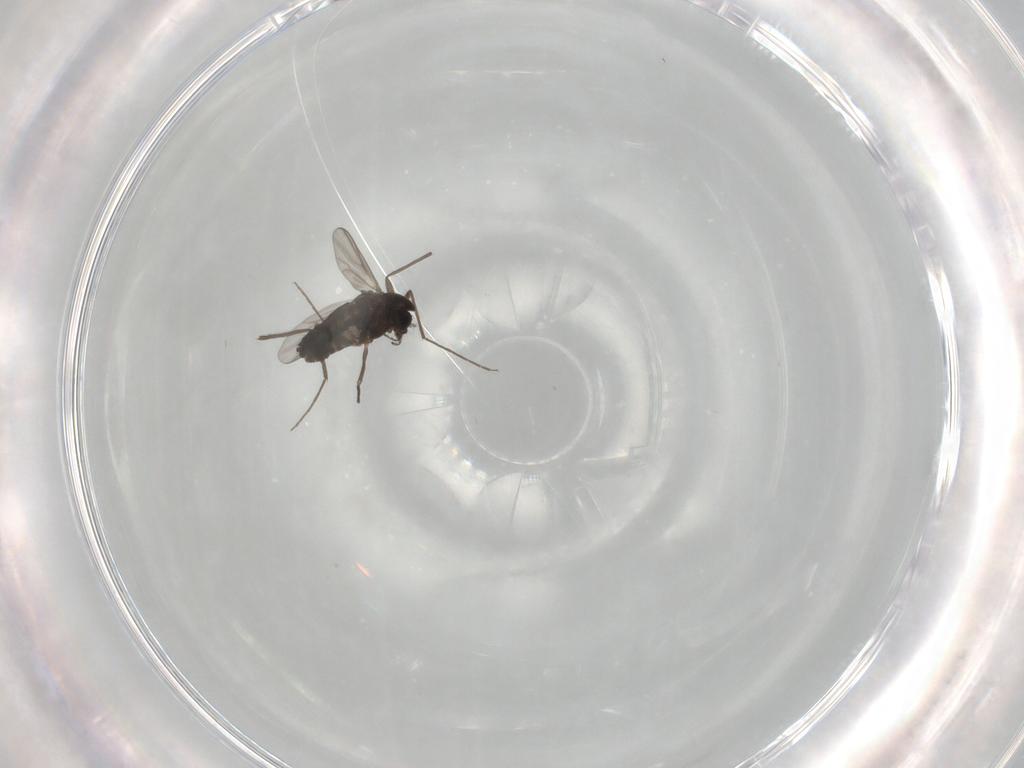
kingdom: Animalia
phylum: Arthropoda
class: Insecta
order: Diptera
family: Chironomidae
